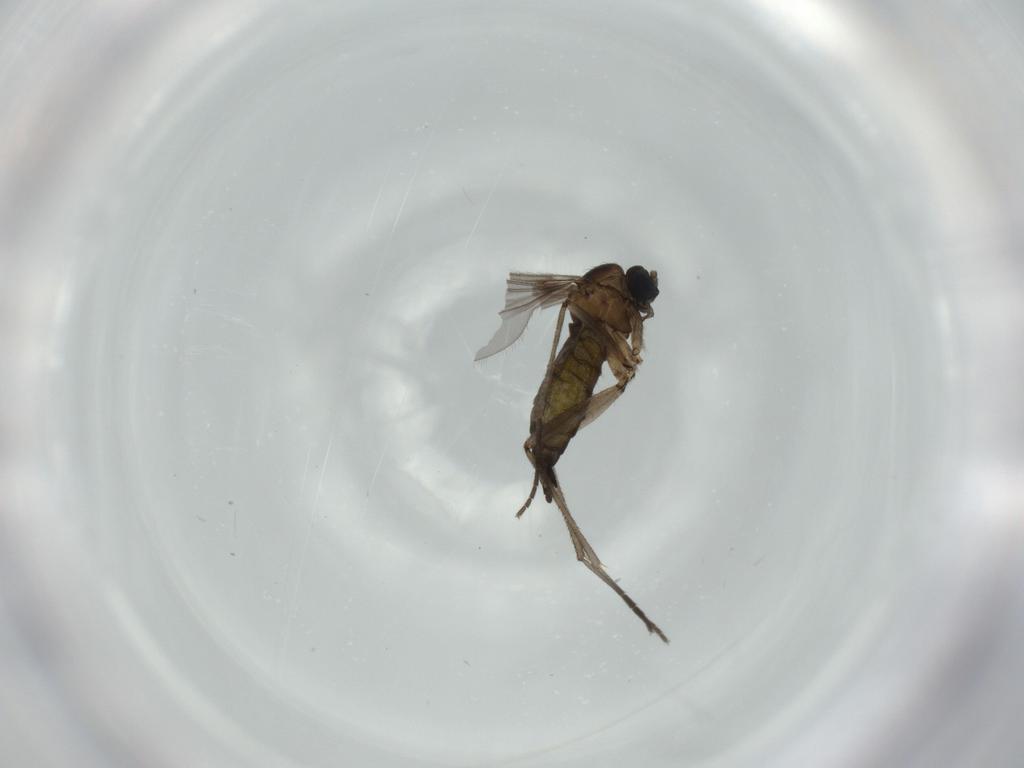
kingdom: Animalia
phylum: Arthropoda
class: Insecta
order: Diptera
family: Sciaridae
